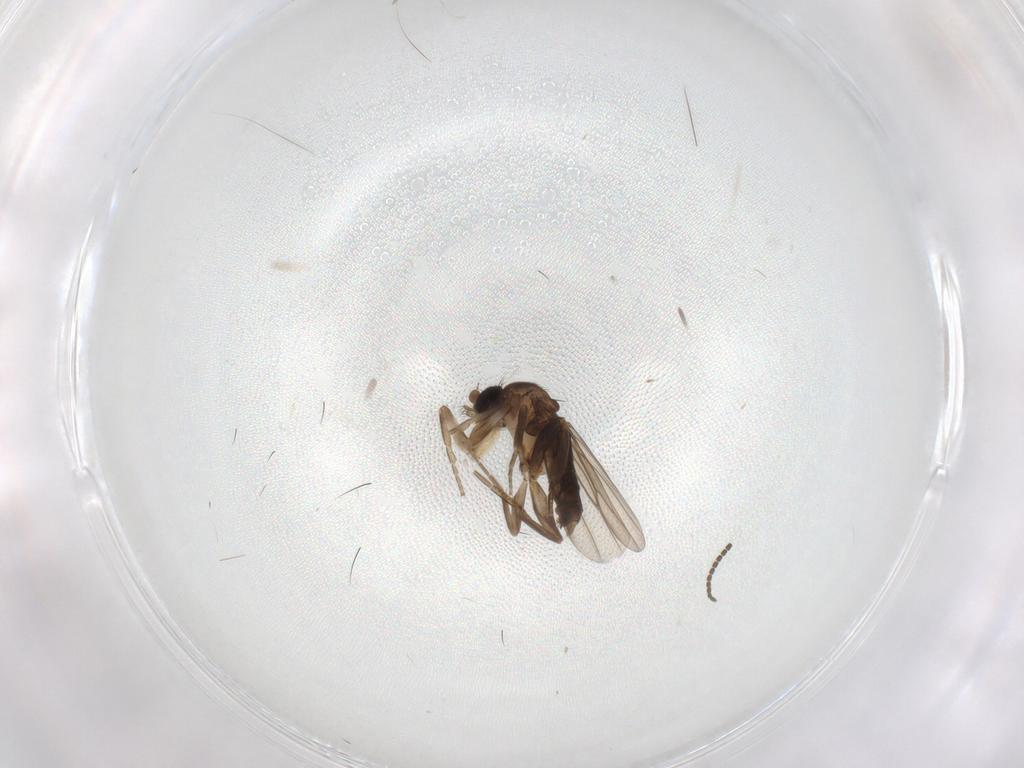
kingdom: Animalia
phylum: Arthropoda
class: Insecta
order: Diptera
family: Phoridae
